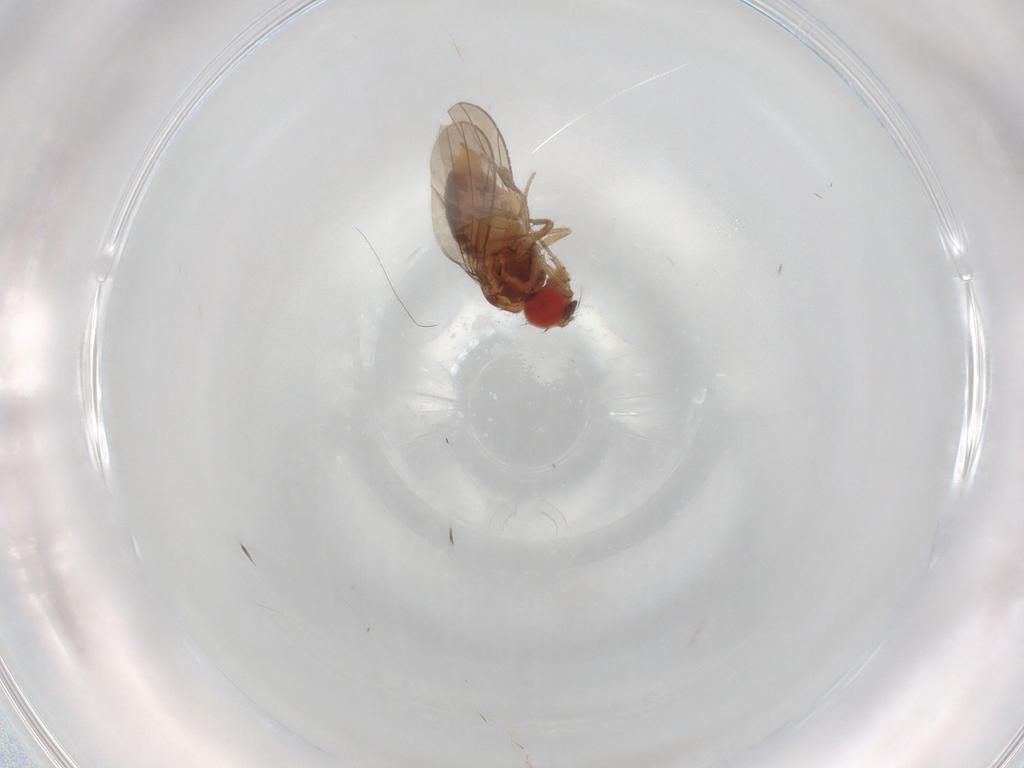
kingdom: Animalia
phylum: Arthropoda
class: Insecta
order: Diptera
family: Drosophilidae
